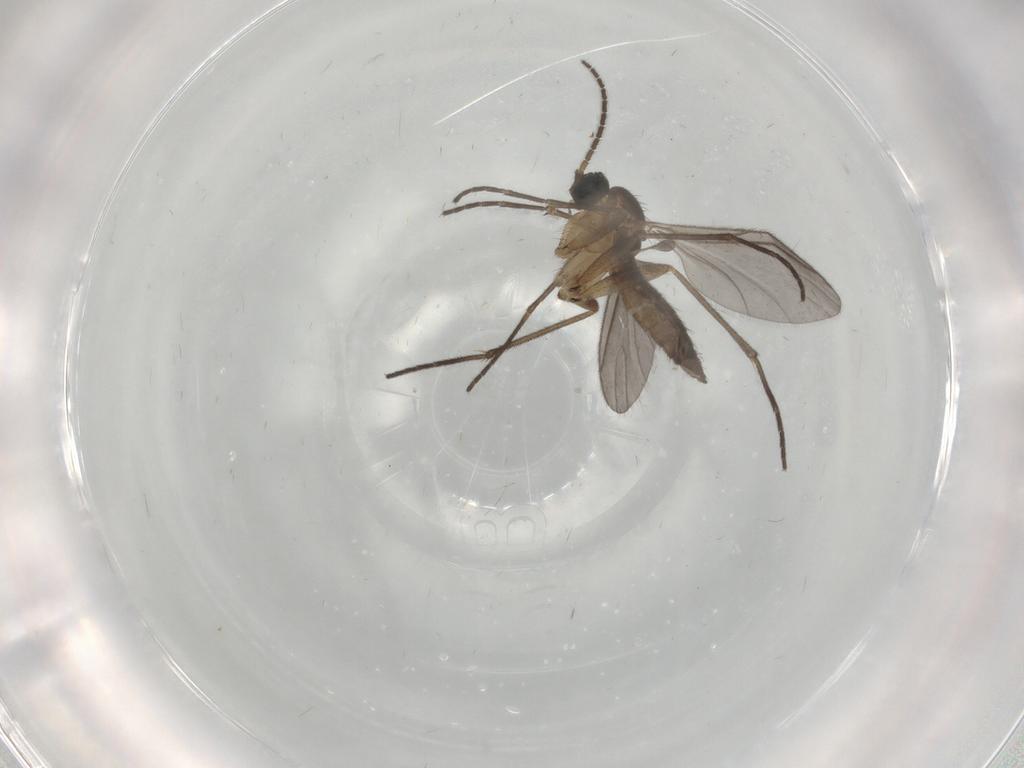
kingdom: Animalia
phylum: Arthropoda
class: Insecta
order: Diptera
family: Sciaridae
